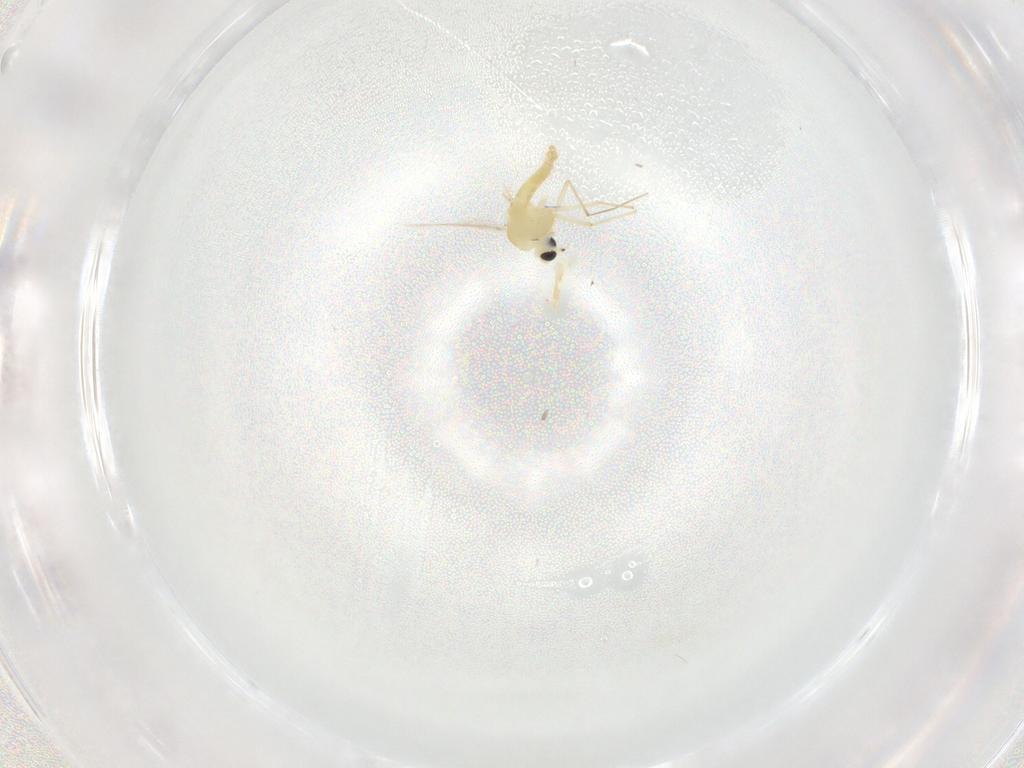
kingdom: Animalia
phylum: Arthropoda
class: Insecta
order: Diptera
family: Chironomidae
